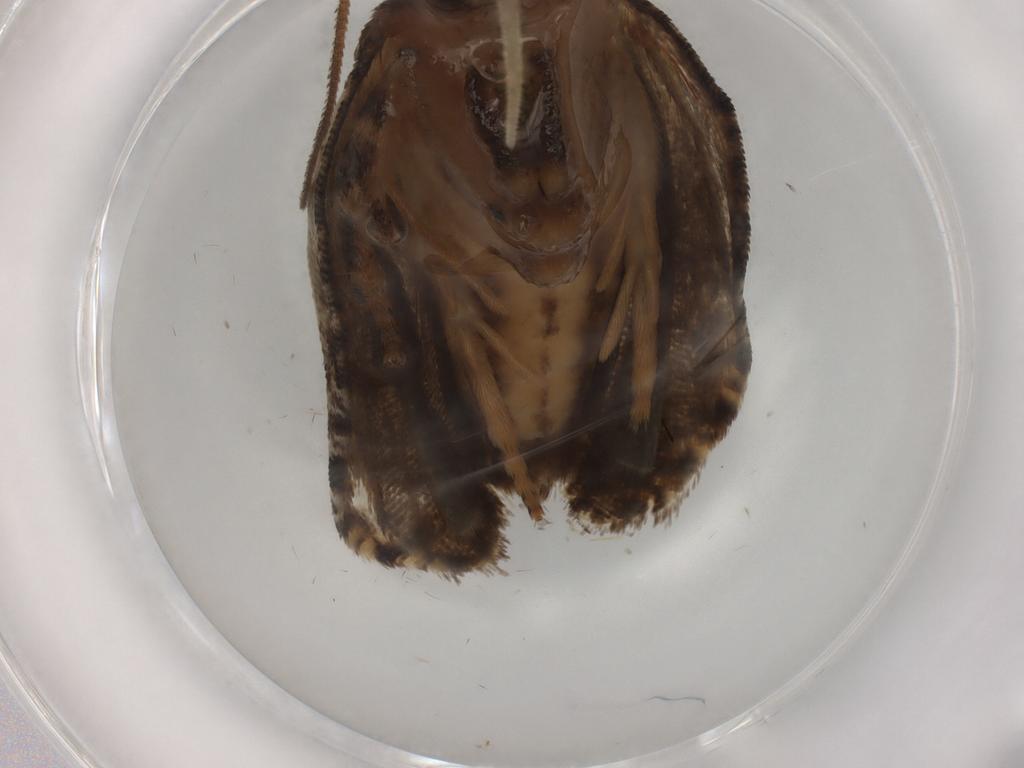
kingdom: Animalia
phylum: Arthropoda
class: Insecta
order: Lepidoptera
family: Tortricidae
